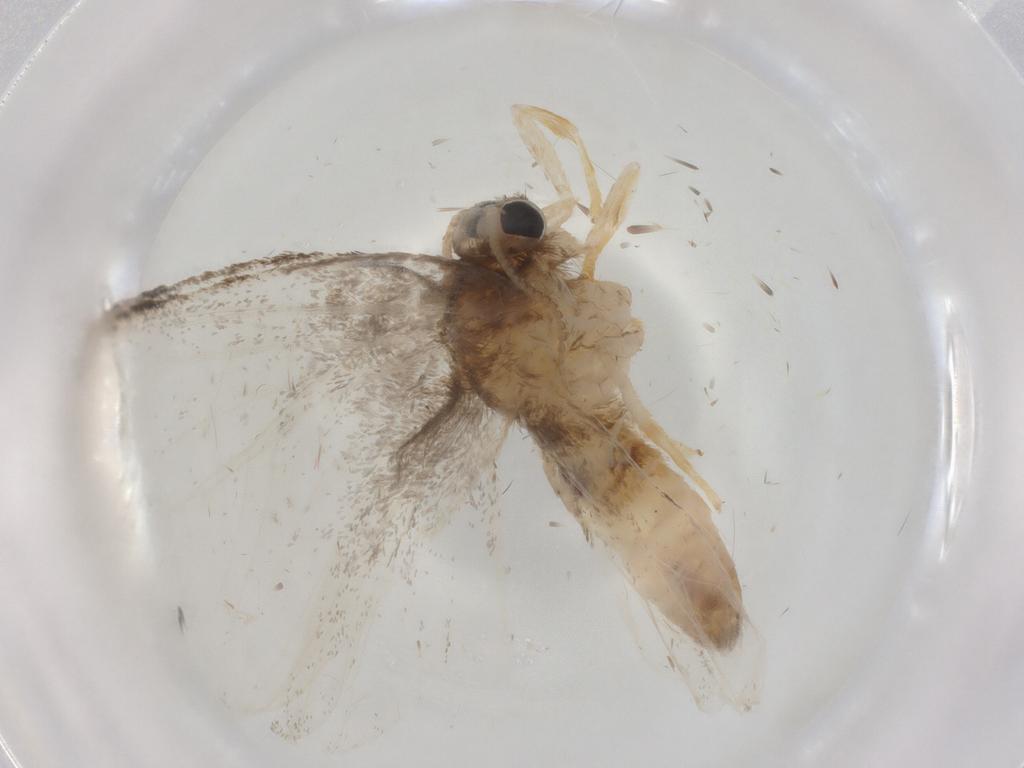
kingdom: Animalia
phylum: Arthropoda
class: Insecta
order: Lepidoptera
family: Erebidae
